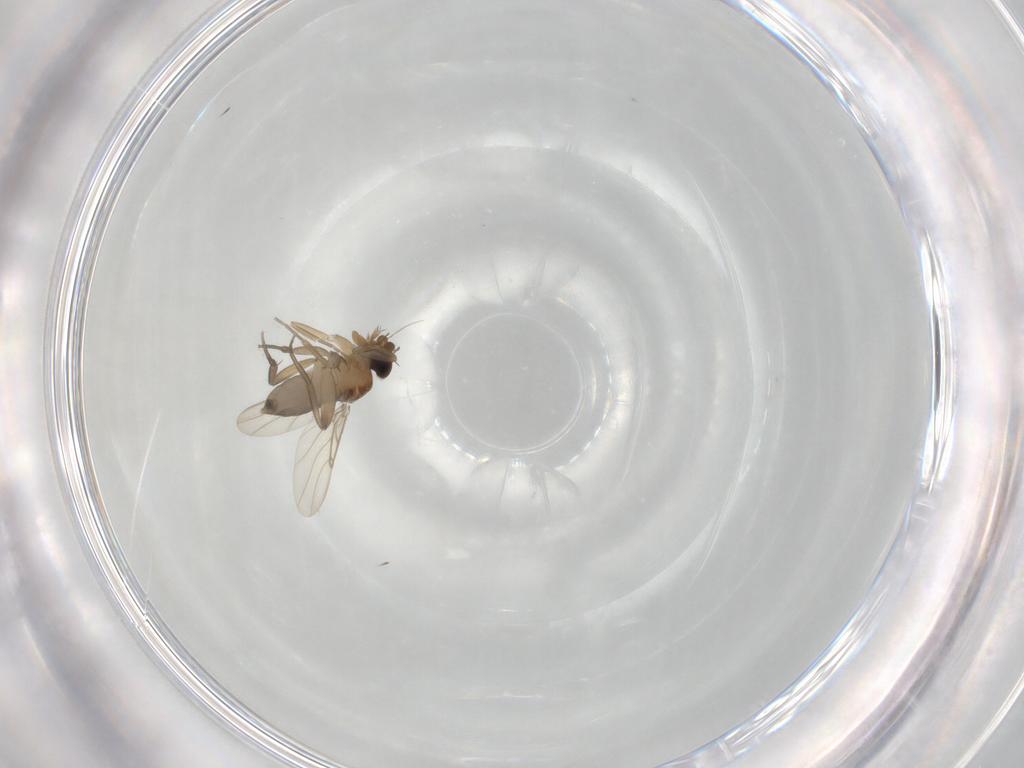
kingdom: Animalia
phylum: Arthropoda
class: Insecta
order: Diptera
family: Phoridae
